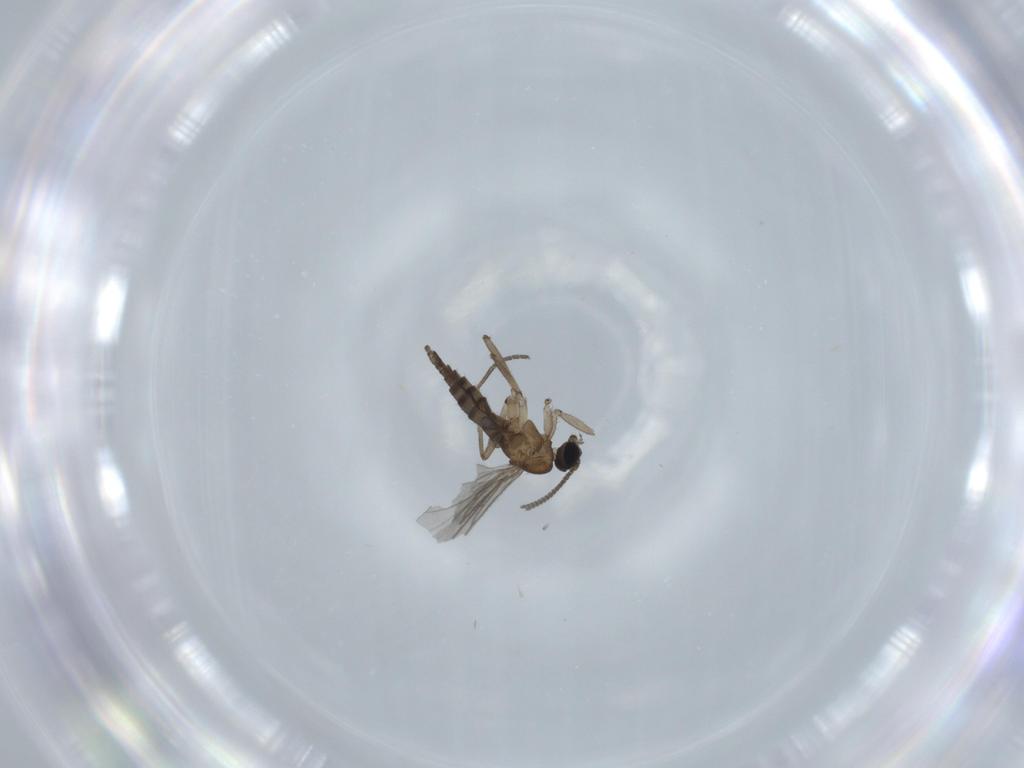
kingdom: Animalia
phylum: Arthropoda
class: Insecta
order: Diptera
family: Sciaridae
